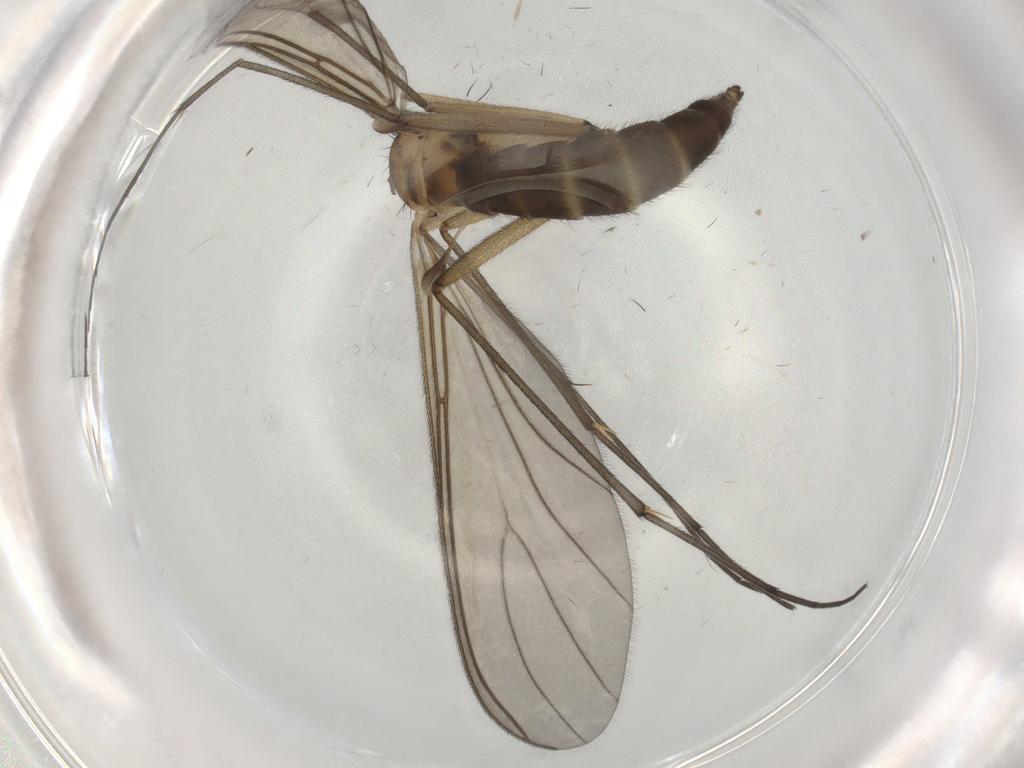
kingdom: Animalia
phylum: Arthropoda
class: Insecta
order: Diptera
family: Sciaridae
